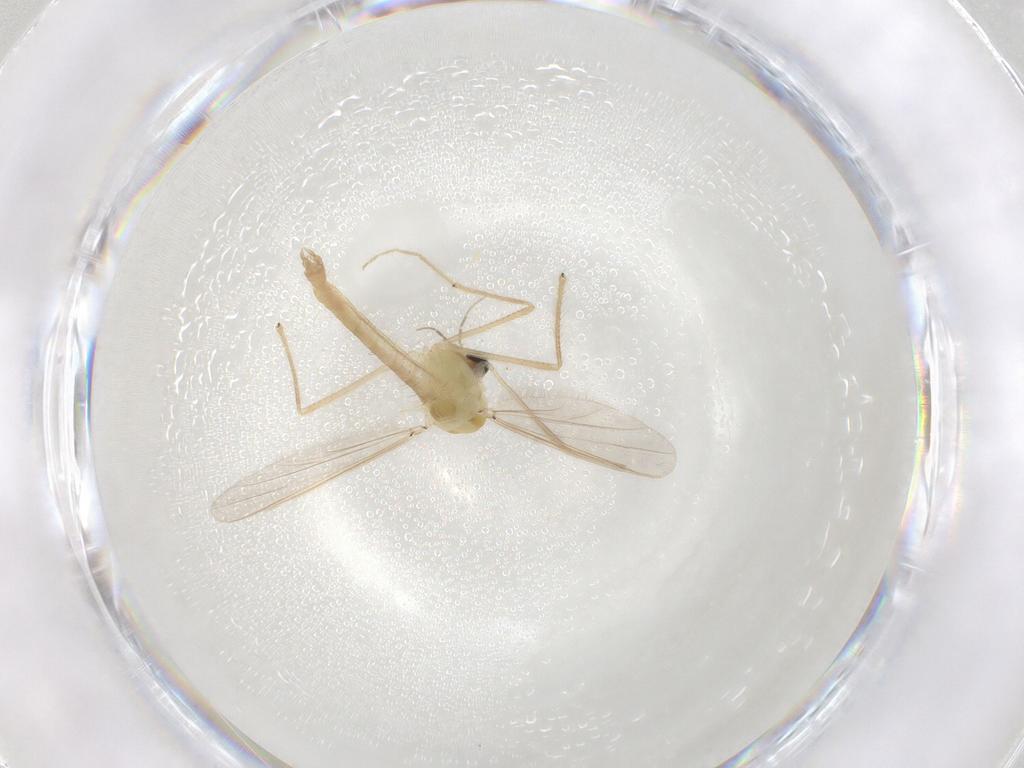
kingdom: Animalia
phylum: Arthropoda
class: Insecta
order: Diptera
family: Chironomidae
